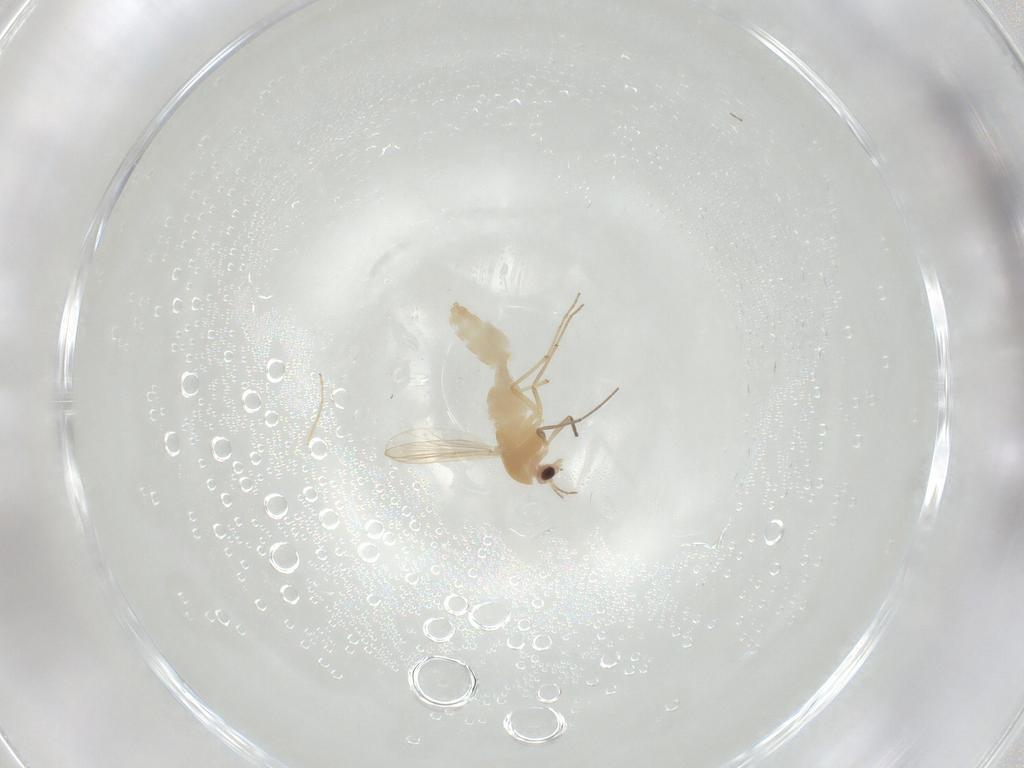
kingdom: Animalia
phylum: Arthropoda
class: Insecta
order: Diptera
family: Chironomidae
